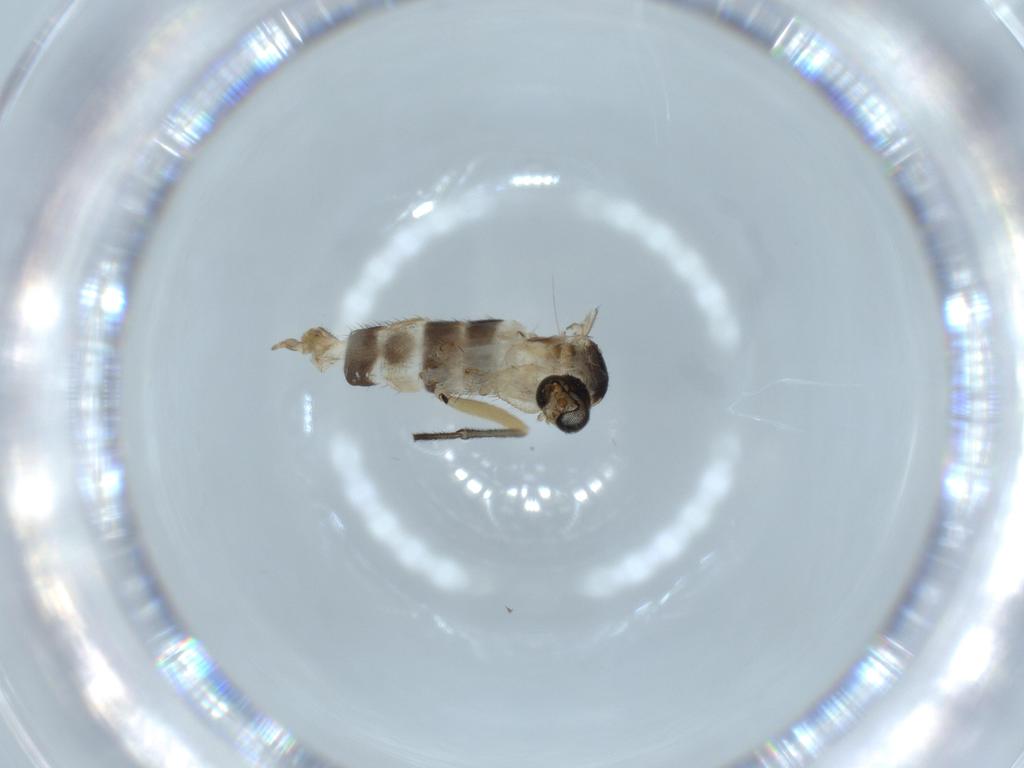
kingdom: Animalia
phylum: Arthropoda
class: Insecta
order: Diptera
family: Sciaridae
